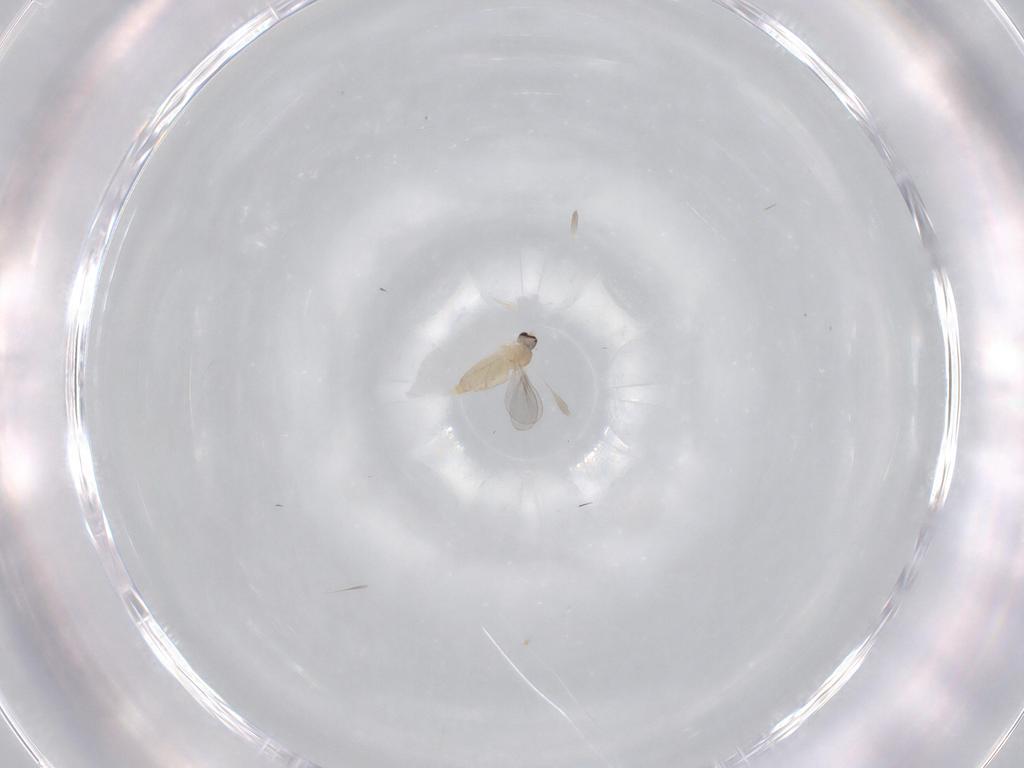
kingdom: Animalia
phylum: Arthropoda
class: Insecta
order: Diptera
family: Cecidomyiidae
